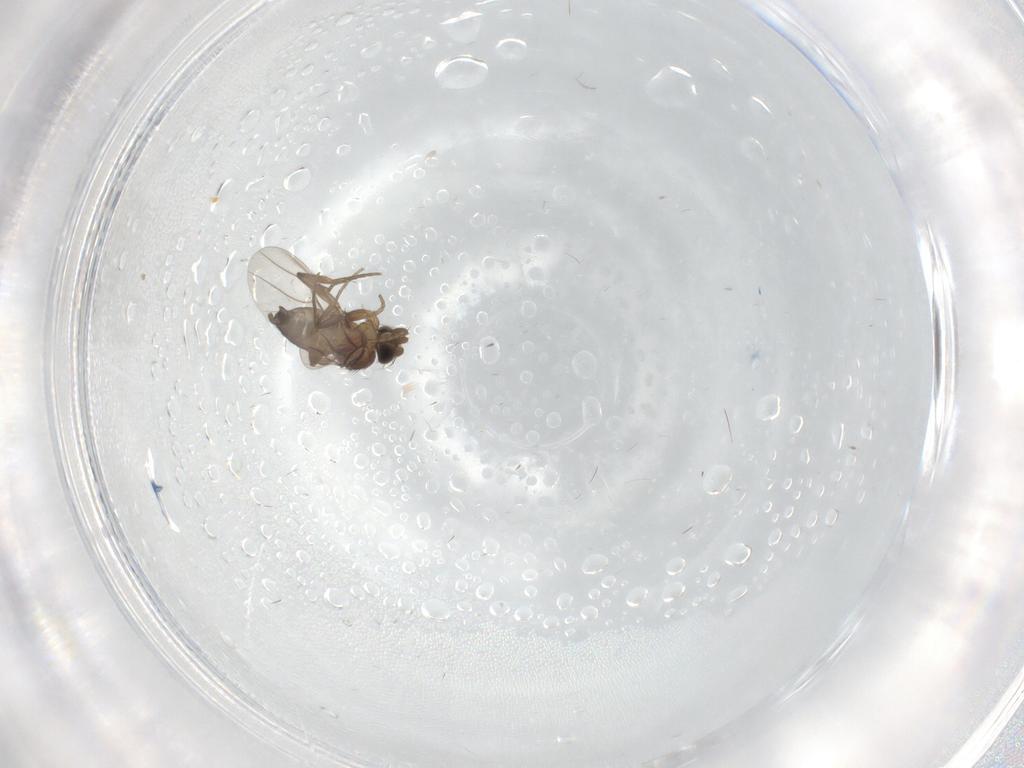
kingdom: Animalia
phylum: Arthropoda
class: Insecta
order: Diptera
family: Phoridae
